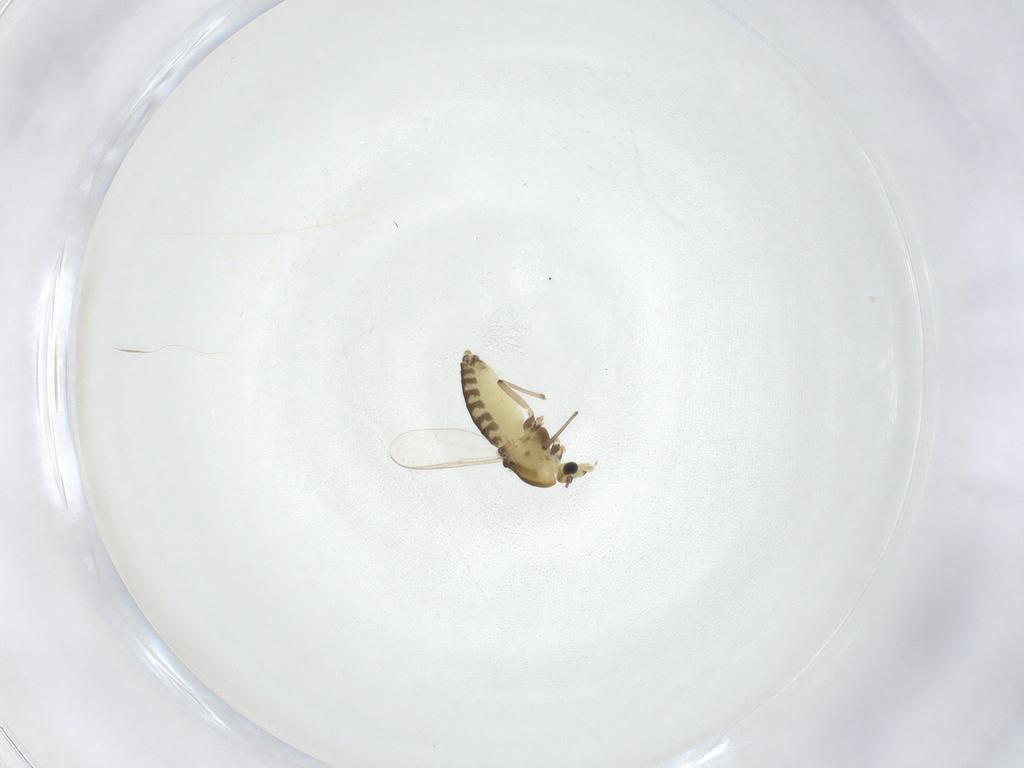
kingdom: Animalia
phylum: Arthropoda
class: Insecta
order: Diptera
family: Chironomidae
